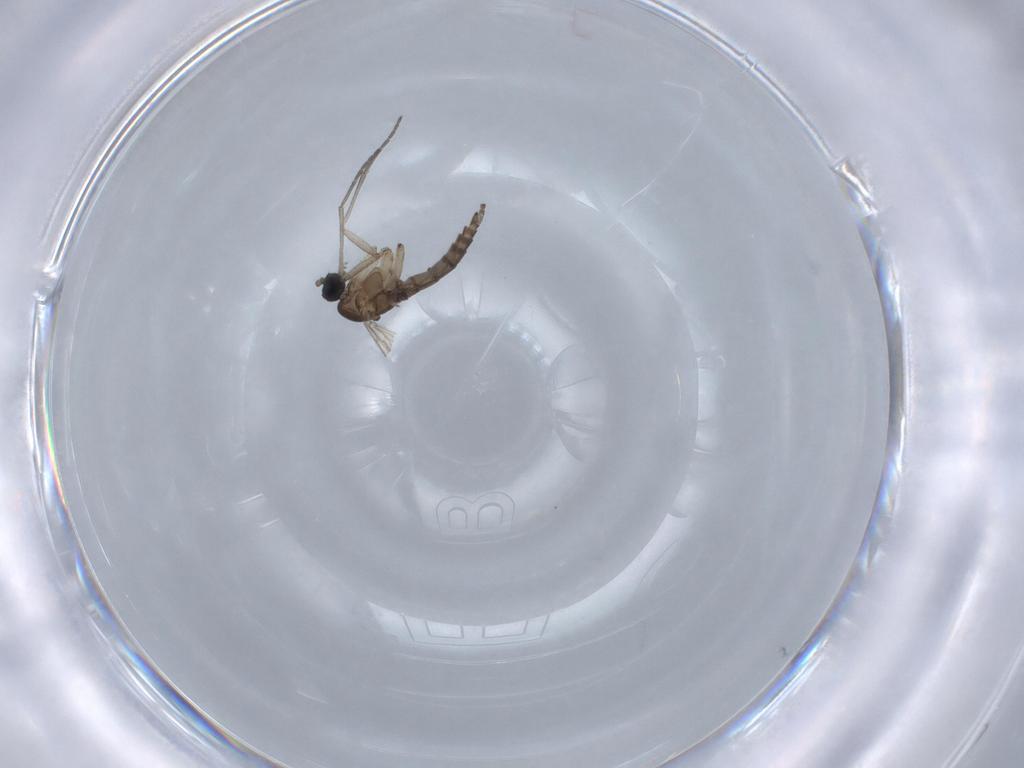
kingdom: Animalia
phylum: Arthropoda
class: Insecta
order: Diptera
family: Sciaridae
